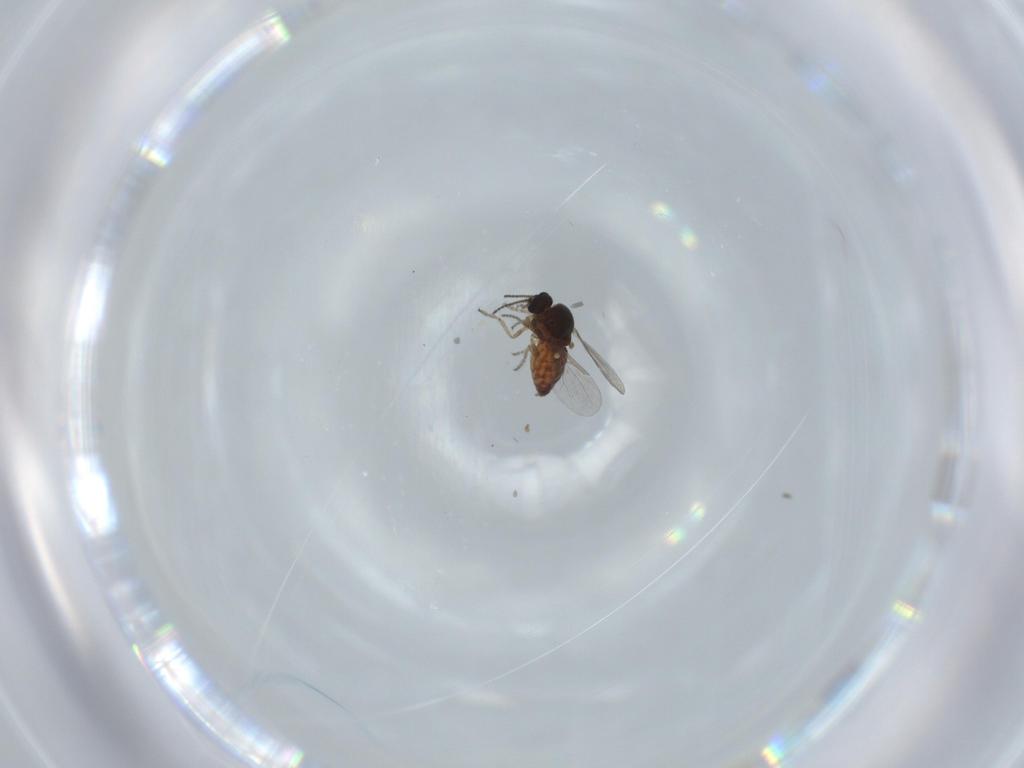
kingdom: Animalia
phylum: Arthropoda
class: Insecta
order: Diptera
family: Ceratopogonidae
